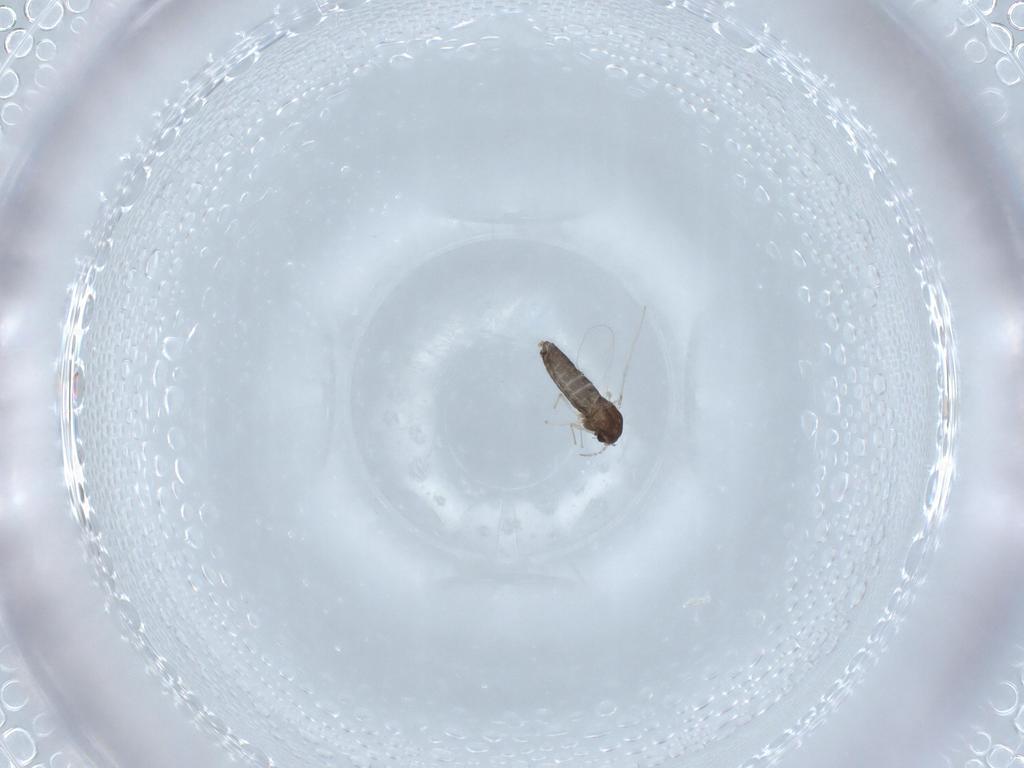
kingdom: Animalia
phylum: Arthropoda
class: Insecta
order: Diptera
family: Chironomidae
